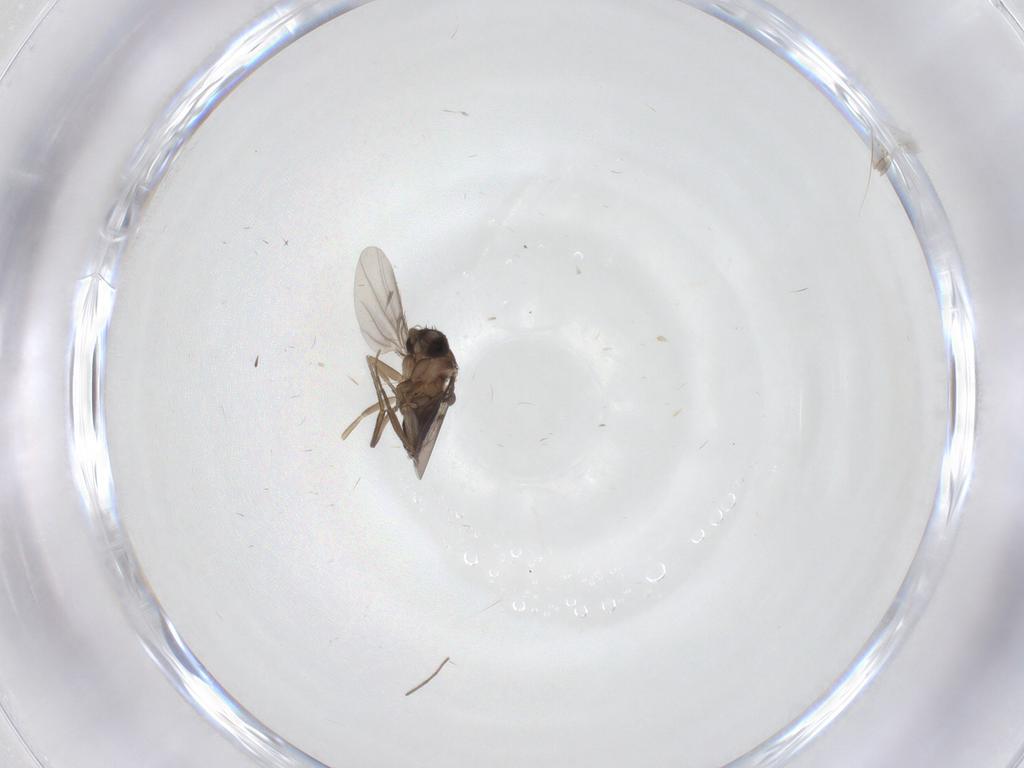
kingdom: Animalia
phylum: Arthropoda
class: Insecta
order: Diptera
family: Chironomidae
